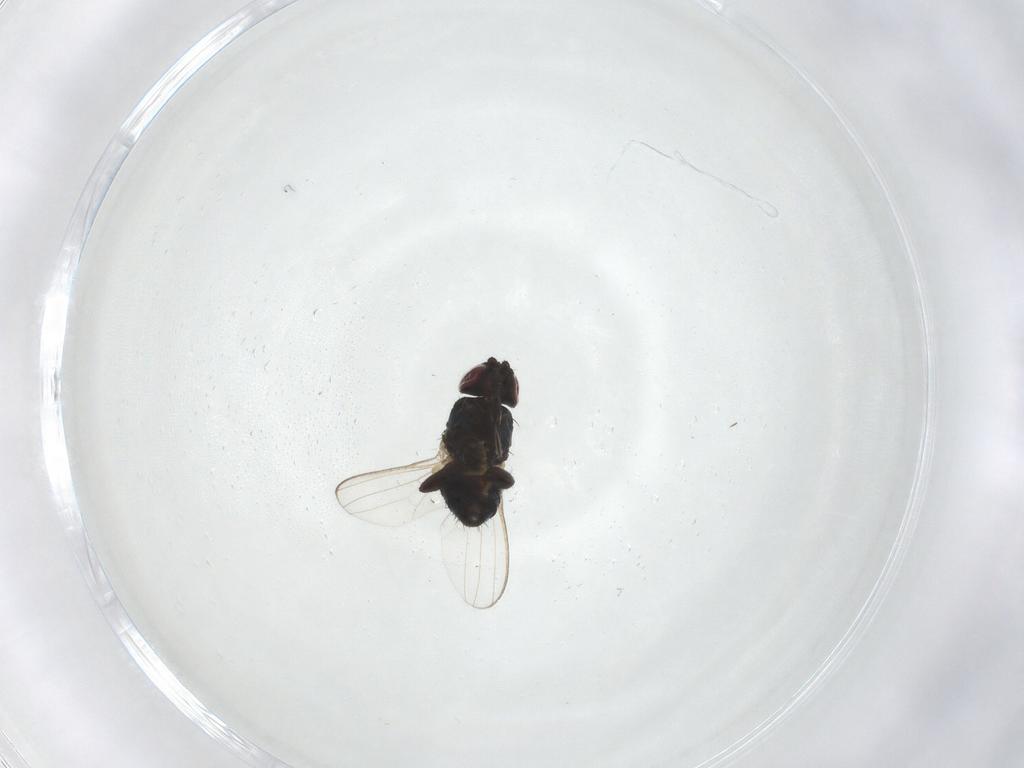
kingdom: Animalia
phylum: Arthropoda
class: Insecta
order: Diptera
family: Milichiidae
